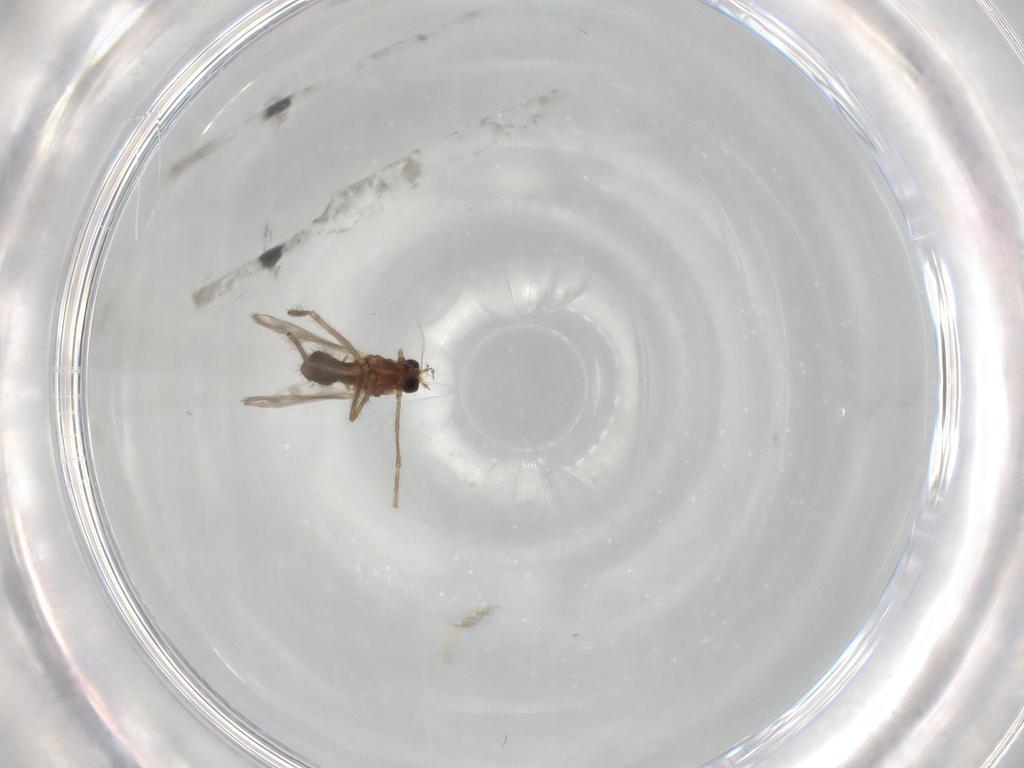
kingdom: Animalia
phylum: Arthropoda
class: Insecta
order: Diptera
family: Chironomidae
